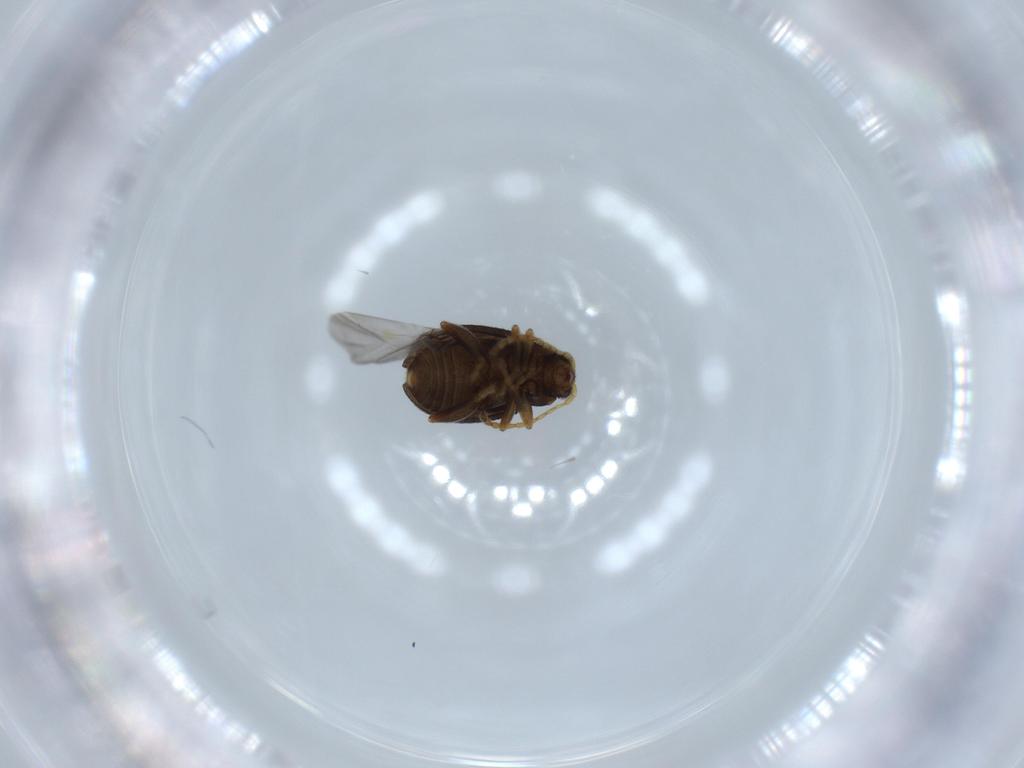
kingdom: Animalia
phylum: Arthropoda
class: Insecta
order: Coleoptera
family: Chrysomelidae
